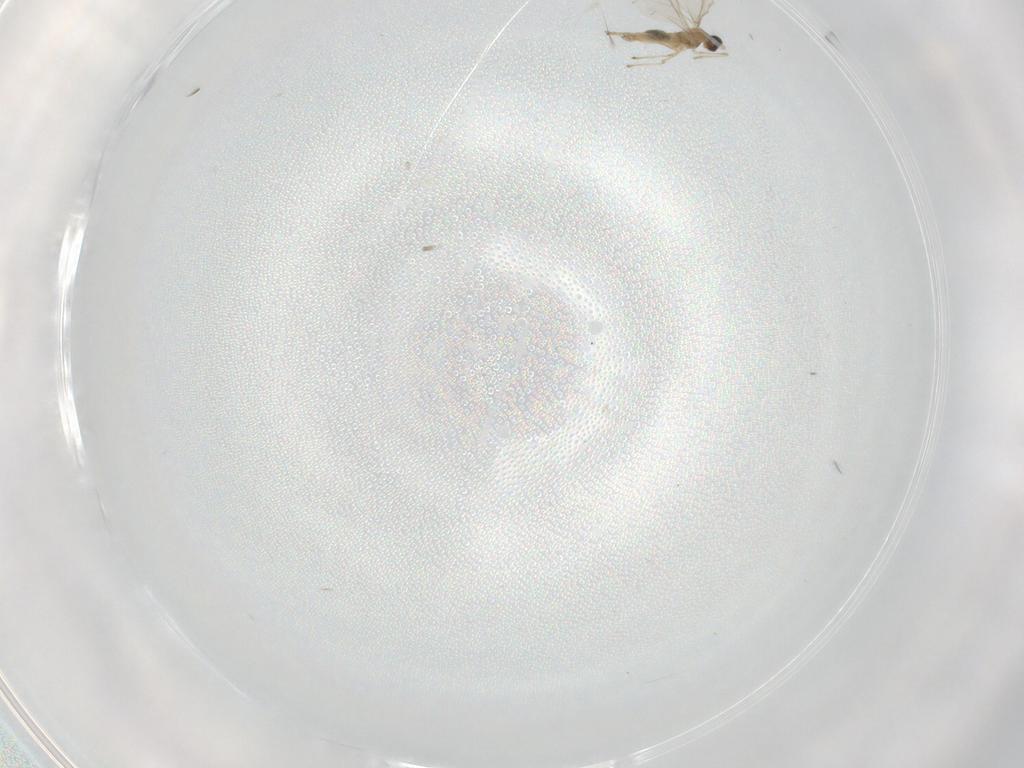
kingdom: Animalia
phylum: Arthropoda
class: Insecta
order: Diptera
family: Cecidomyiidae
